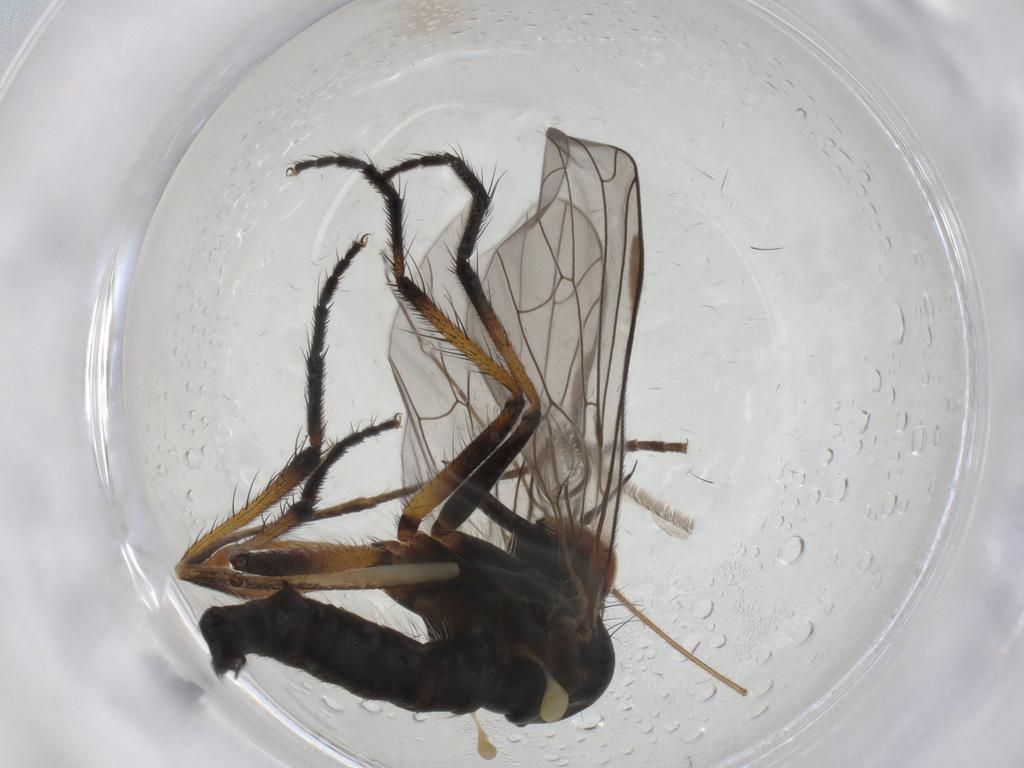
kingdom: Animalia
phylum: Arthropoda
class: Insecta
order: Diptera
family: Empididae
